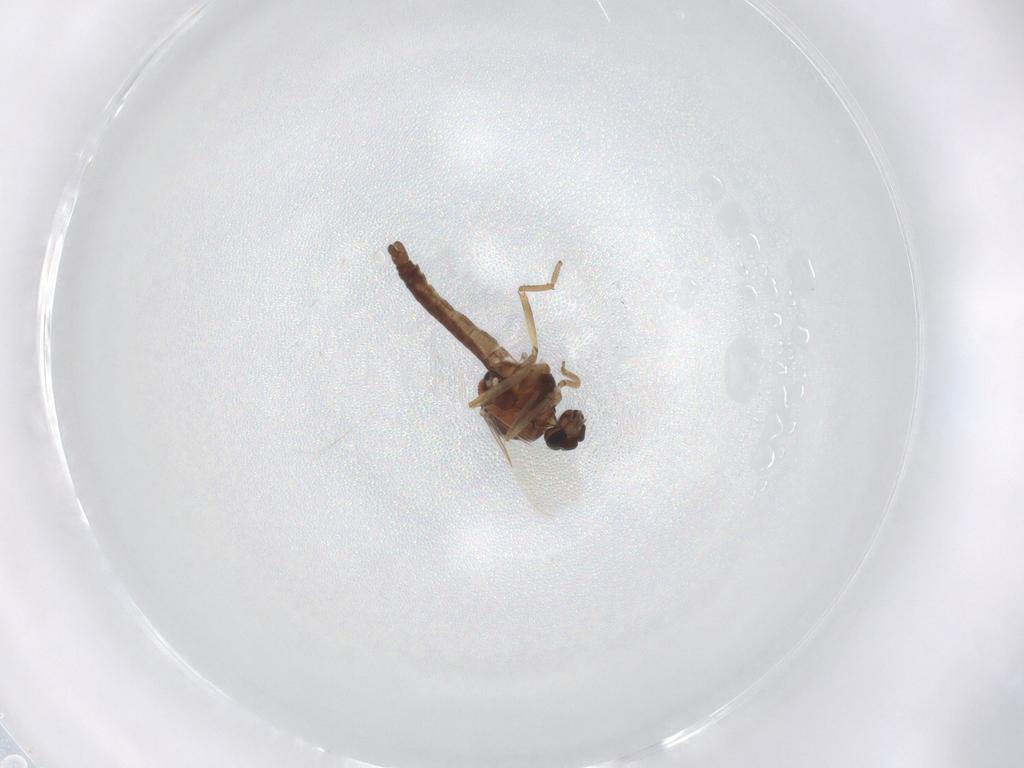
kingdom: Animalia
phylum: Arthropoda
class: Insecta
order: Diptera
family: Ceratopogonidae
